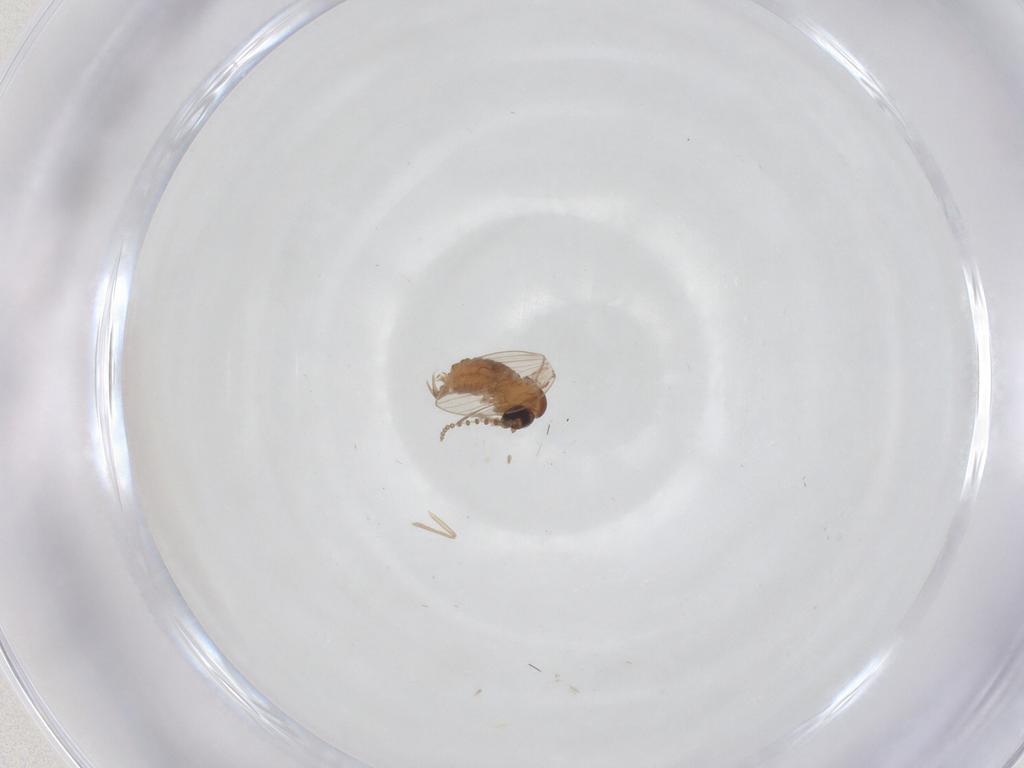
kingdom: Animalia
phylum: Arthropoda
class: Insecta
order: Diptera
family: Psychodidae
